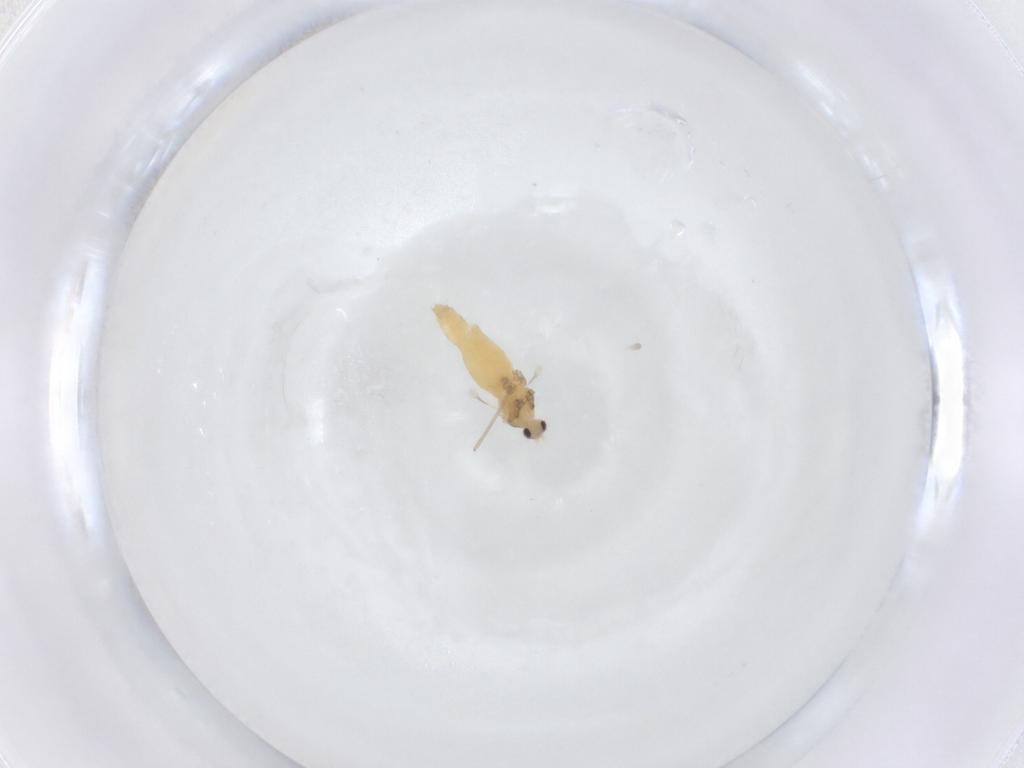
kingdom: Animalia
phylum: Arthropoda
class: Insecta
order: Diptera
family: Cecidomyiidae
